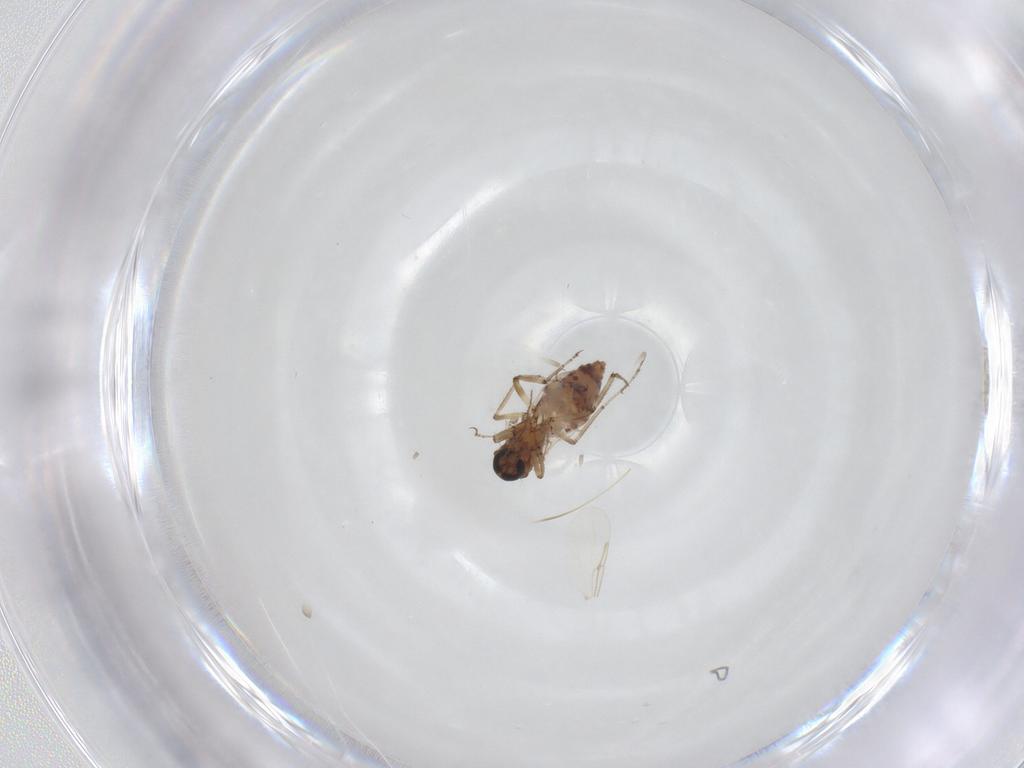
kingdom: Animalia
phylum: Arthropoda
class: Insecta
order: Diptera
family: Ceratopogonidae
